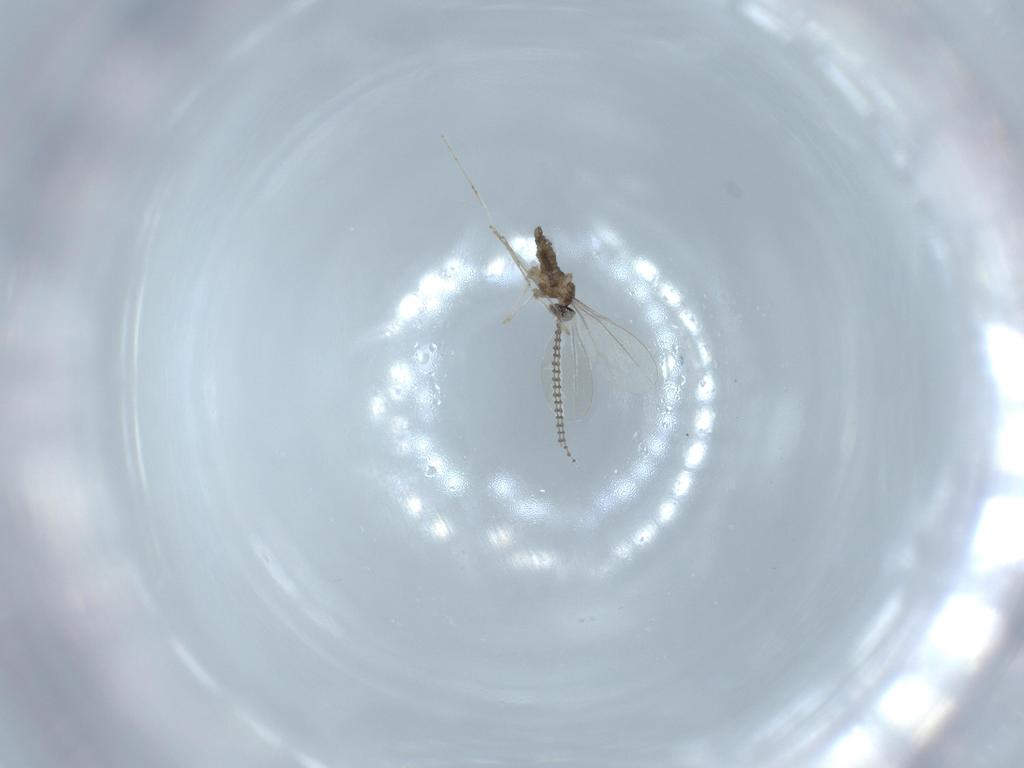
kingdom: Animalia
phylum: Arthropoda
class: Insecta
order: Diptera
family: Cecidomyiidae
